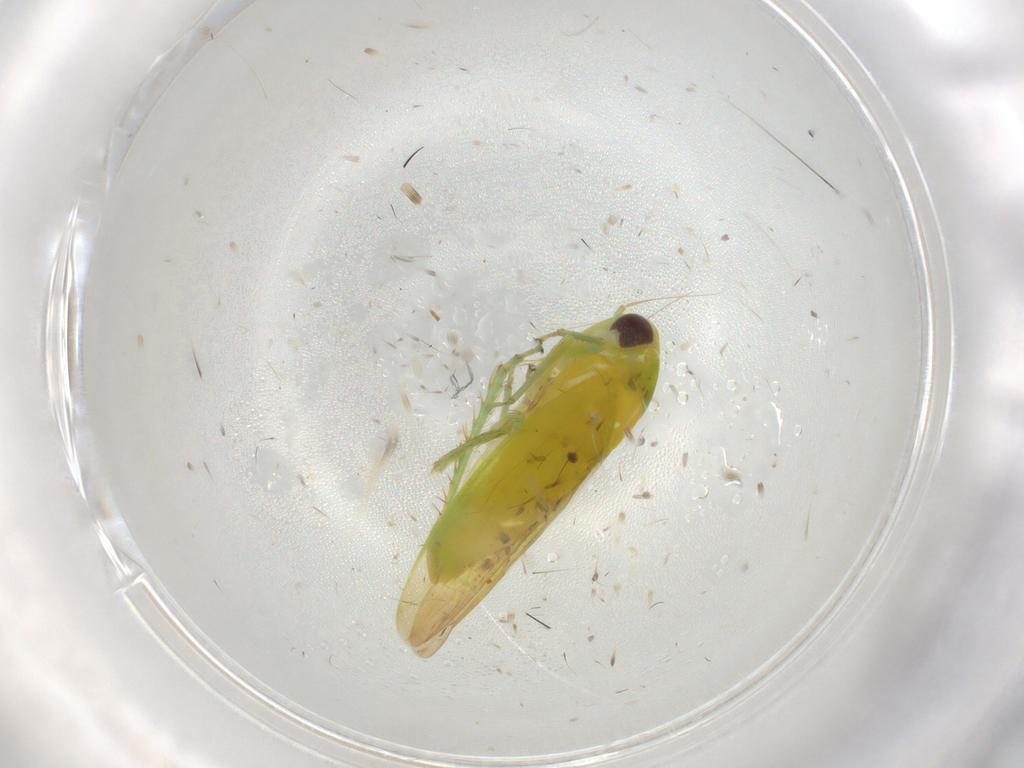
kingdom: Animalia
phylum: Arthropoda
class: Insecta
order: Hemiptera
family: Cicadellidae
